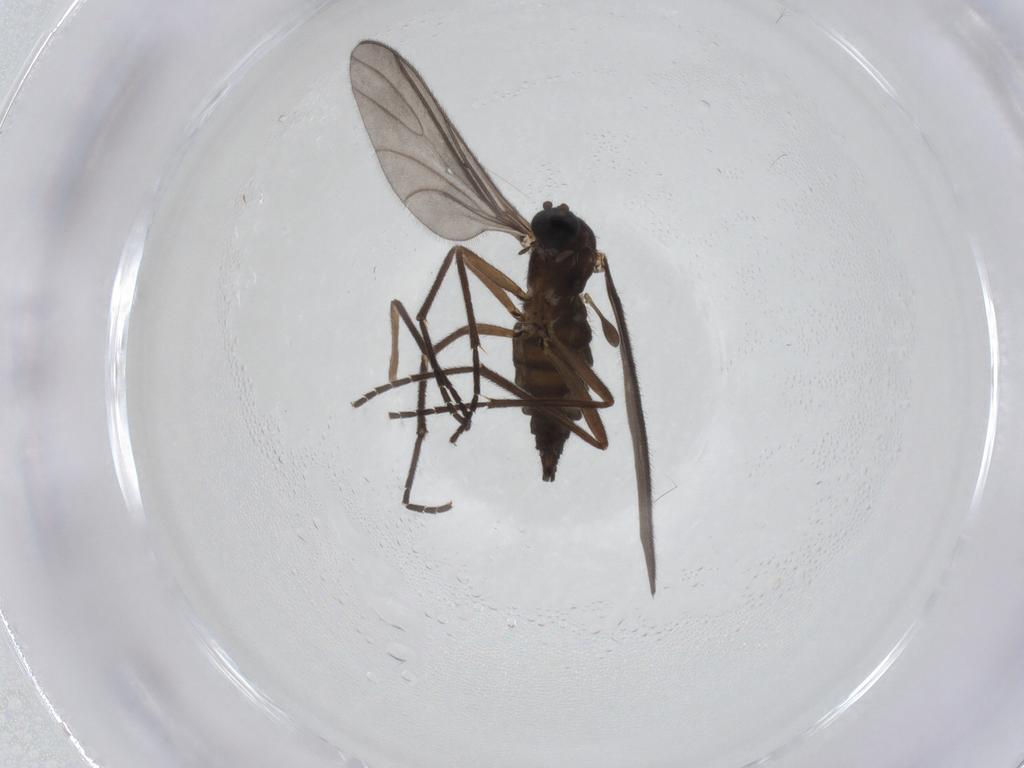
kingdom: Animalia
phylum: Arthropoda
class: Insecta
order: Diptera
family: Sciaridae
